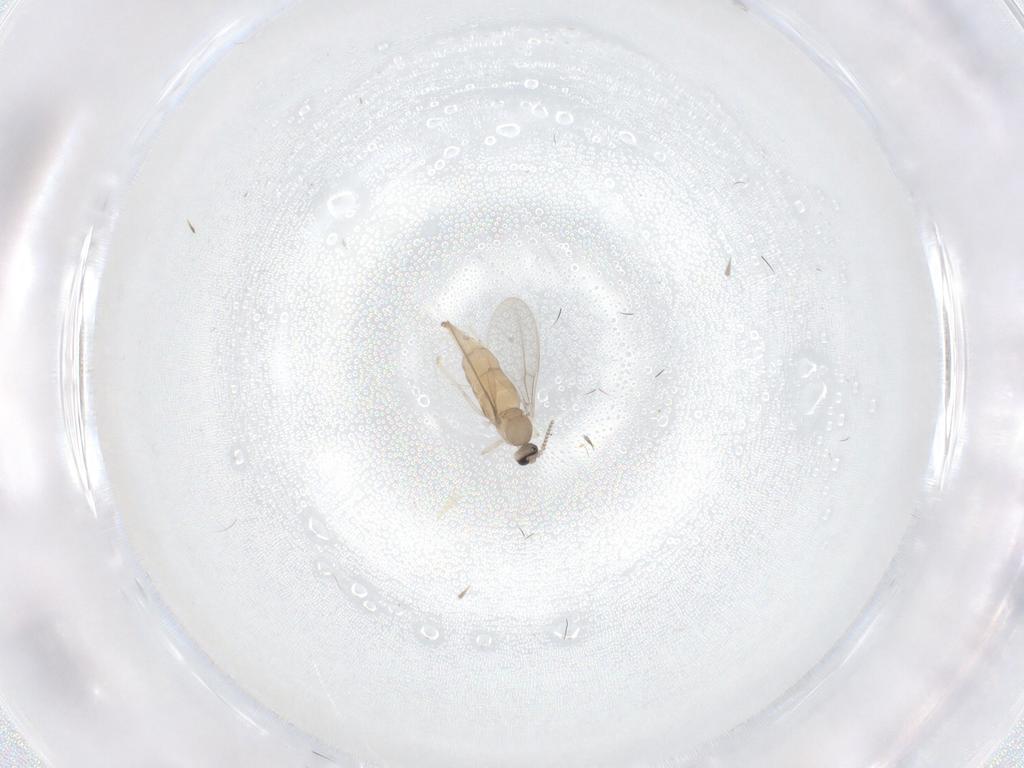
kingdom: Animalia
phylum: Arthropoda
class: Insecta
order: Diptera
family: Cecidomyiidae
